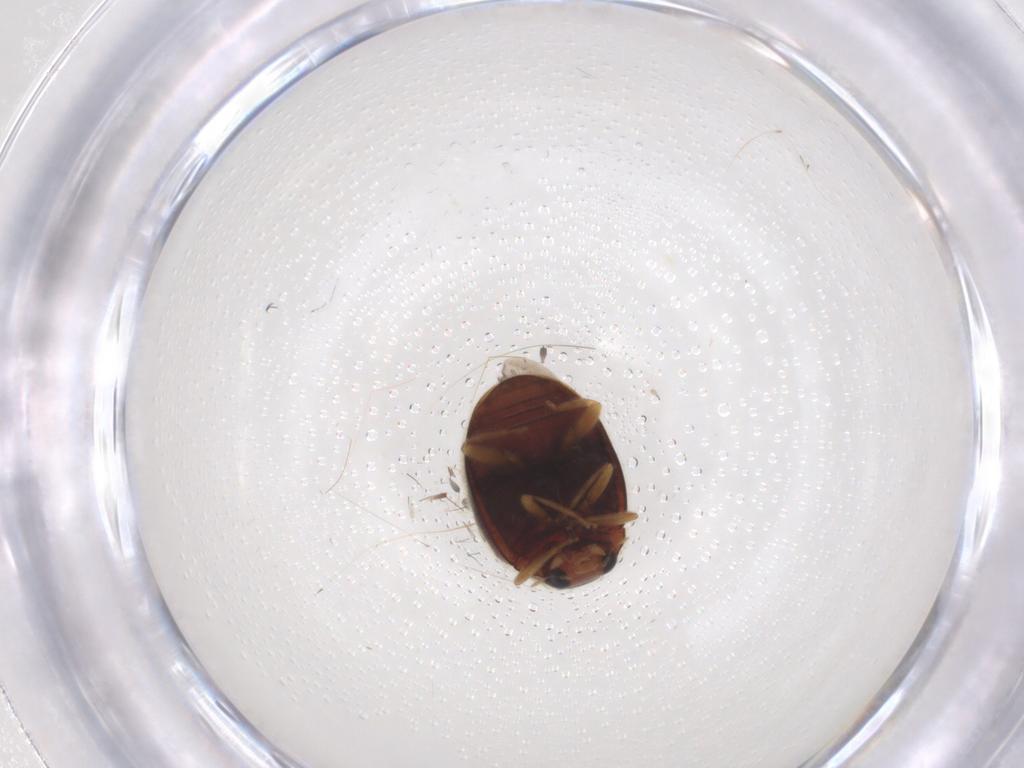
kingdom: Animalia
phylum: Arthropoda
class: Insecta
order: Coleoptera
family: Coccinellidae
